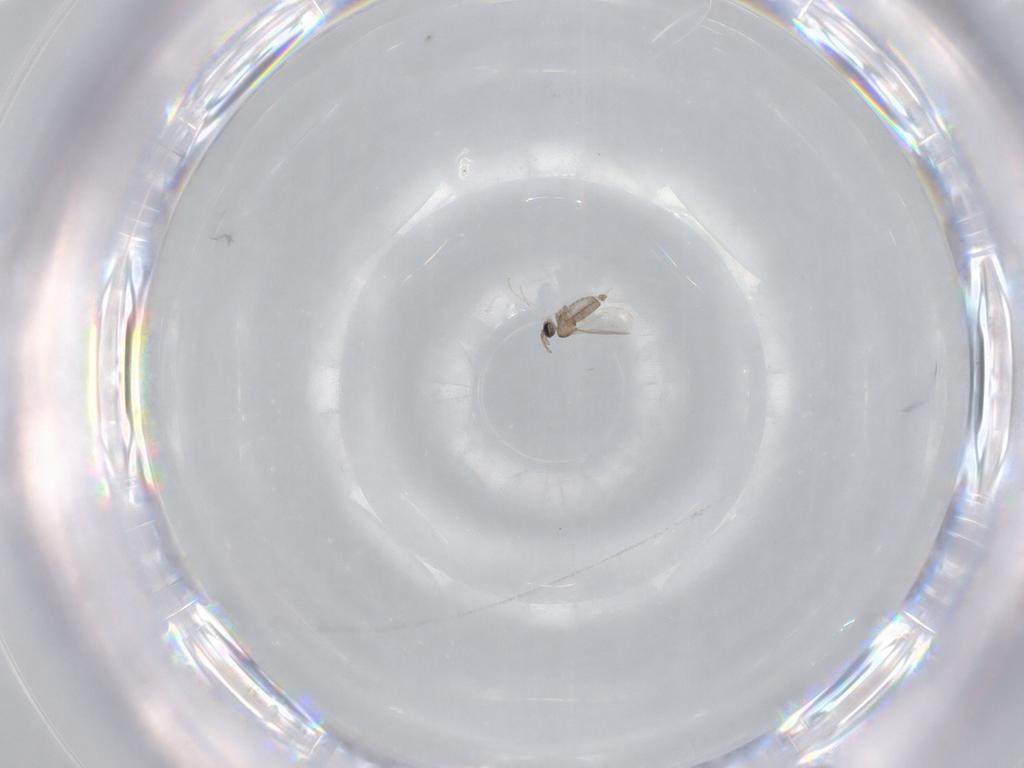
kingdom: Animalia
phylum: Arthropoda
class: Insecta
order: Diptera
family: Cecidomyiidae
